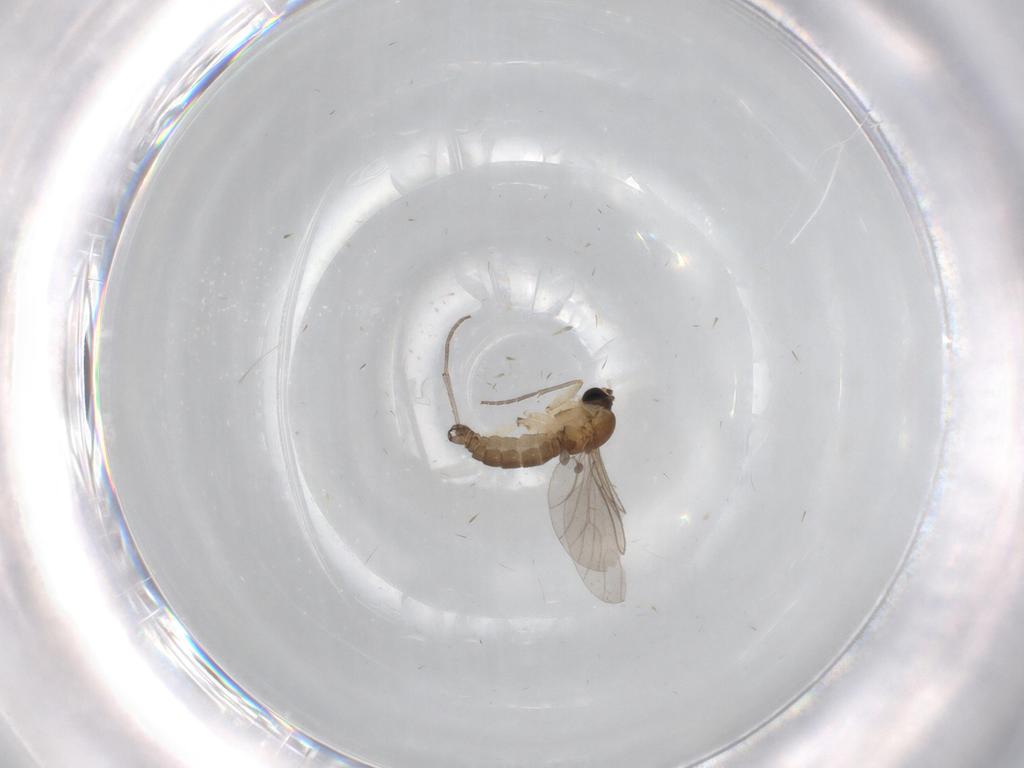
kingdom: Animalia
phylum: Arthropoda
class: Insecta
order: Diptera
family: Sciaridae
